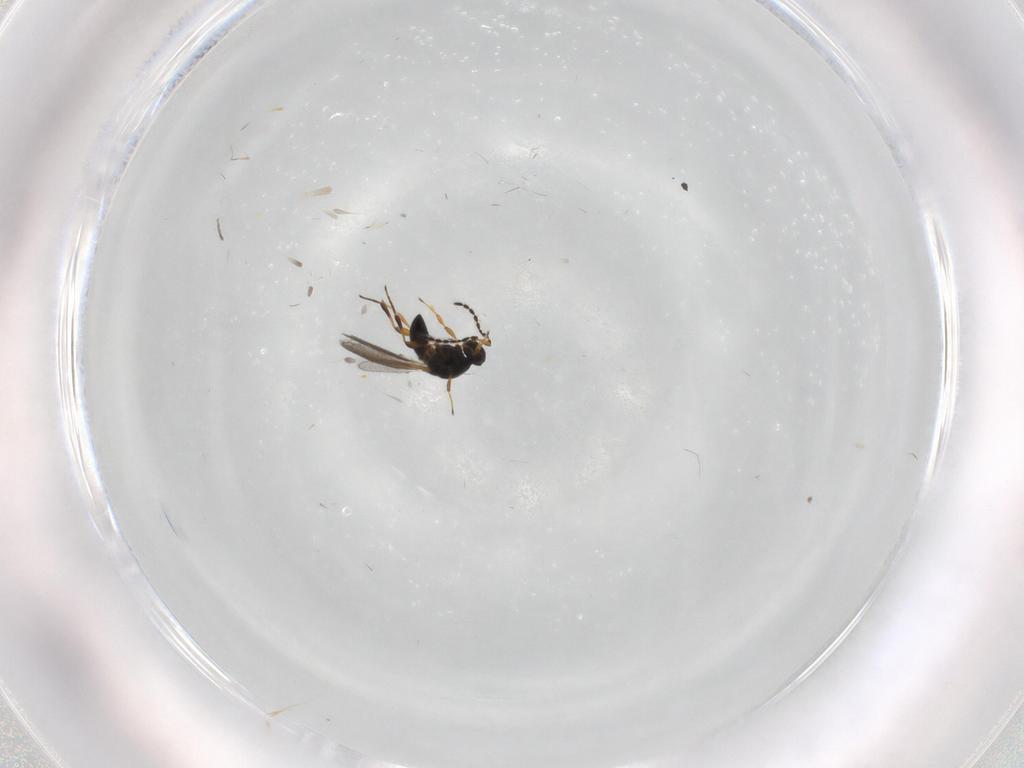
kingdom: Animalia
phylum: Arthropoda
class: Insecta
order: Hymenoptera
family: Platygastridae
